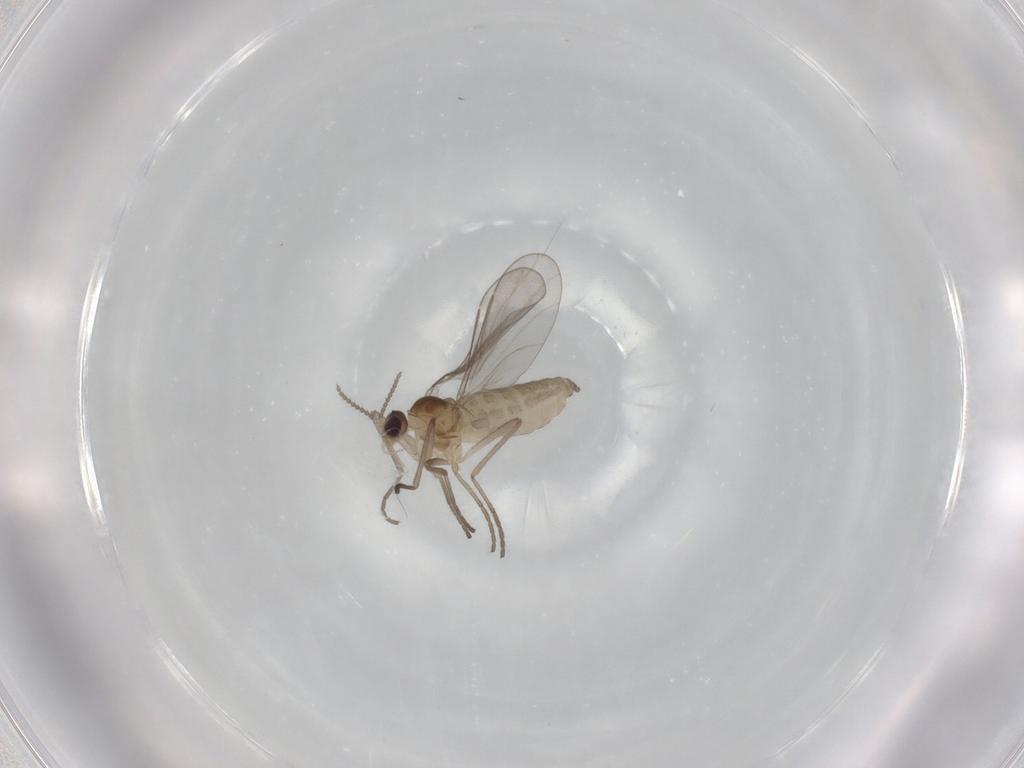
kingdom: Animalia
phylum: Arthropoda
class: Insecta
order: Diptera
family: Cecidomyiidae
